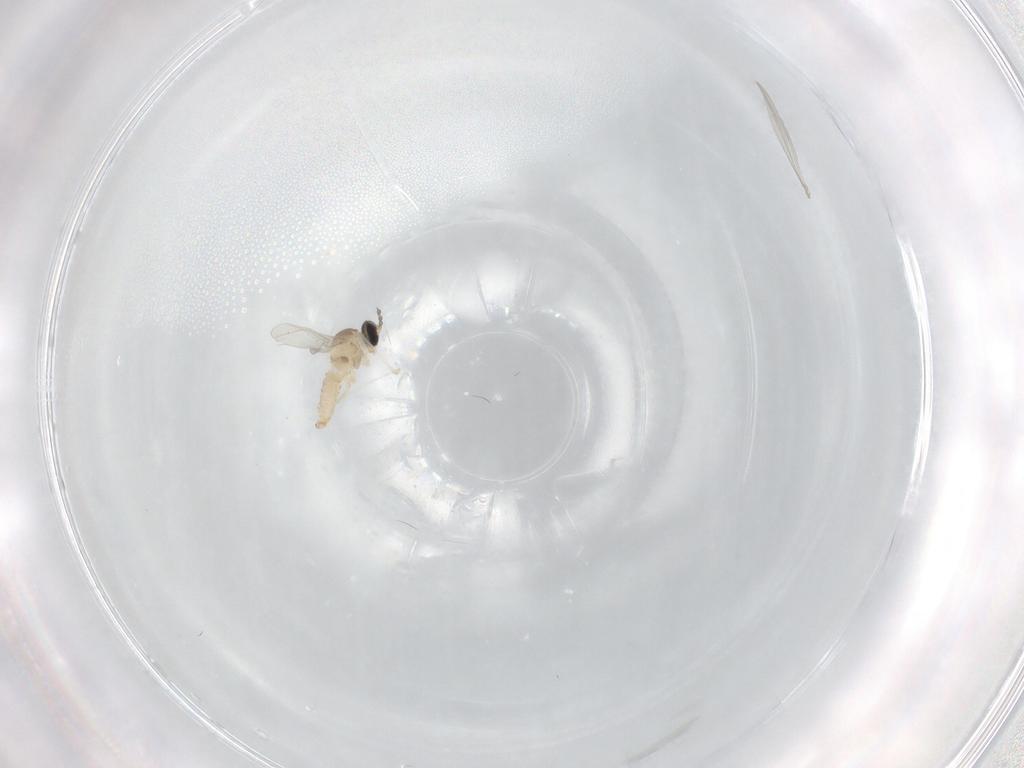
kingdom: Animalia
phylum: Arthropoda
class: Insecta
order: Diptera
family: Cecidomyiidae
